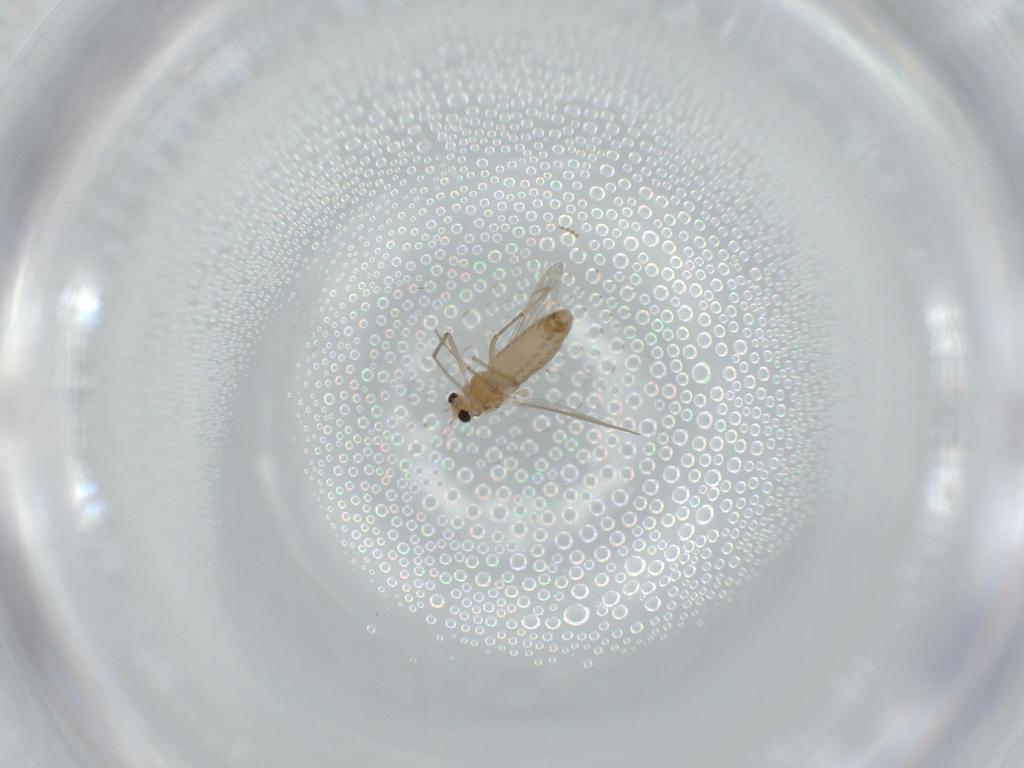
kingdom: Animalia
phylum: Arthropoda
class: Insecta
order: Diptera
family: Chironomidae
